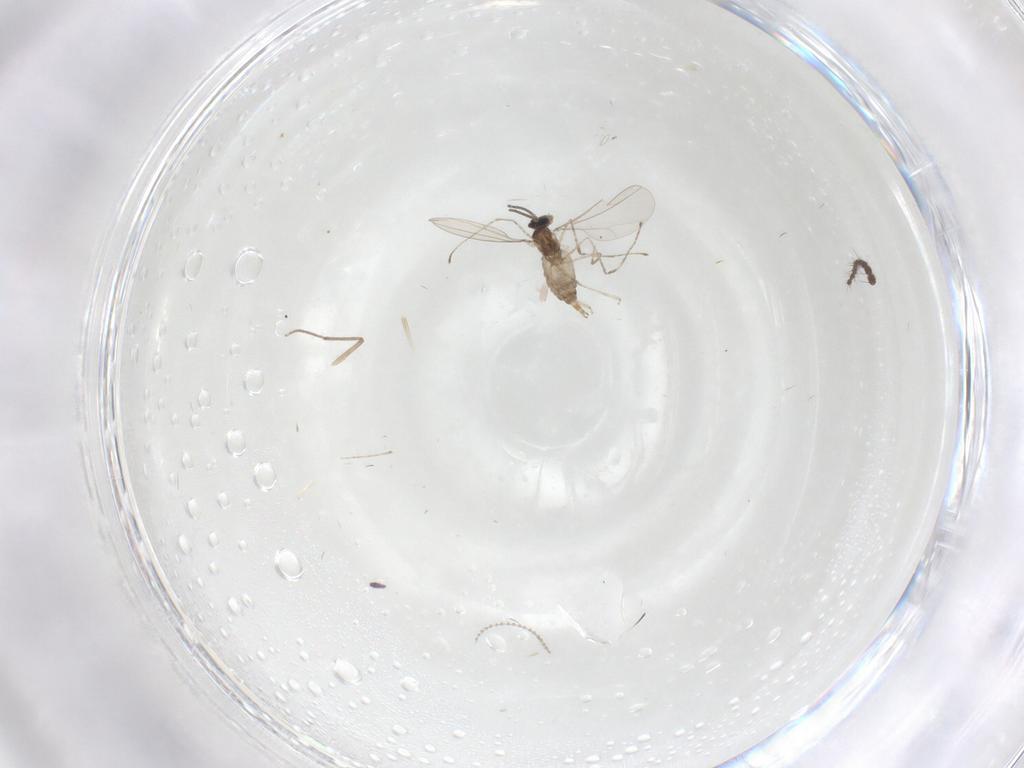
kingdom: Animalia
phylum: Arthropoda
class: Insecta
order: Diptera
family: Cecidomyiidae
